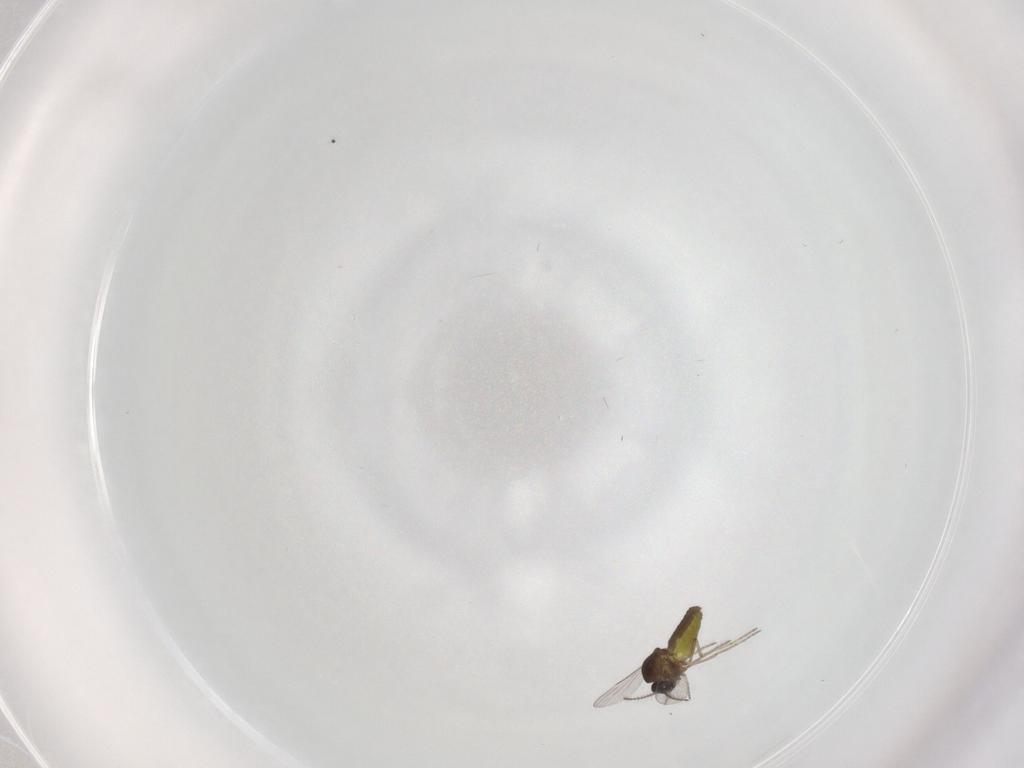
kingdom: Animalia
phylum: Arthropoda
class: Insecta
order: Diptera
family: Ceratopogonidae
